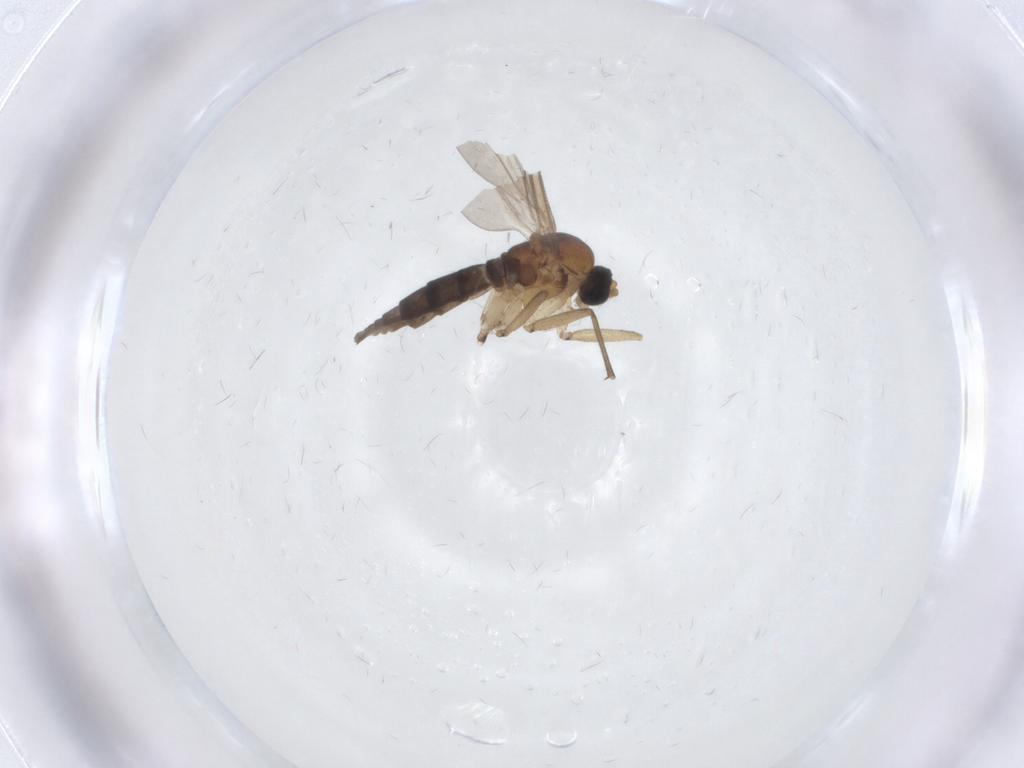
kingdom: Animalia
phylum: Arthropoda
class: Insecta
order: Diptera
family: Sciaridae
